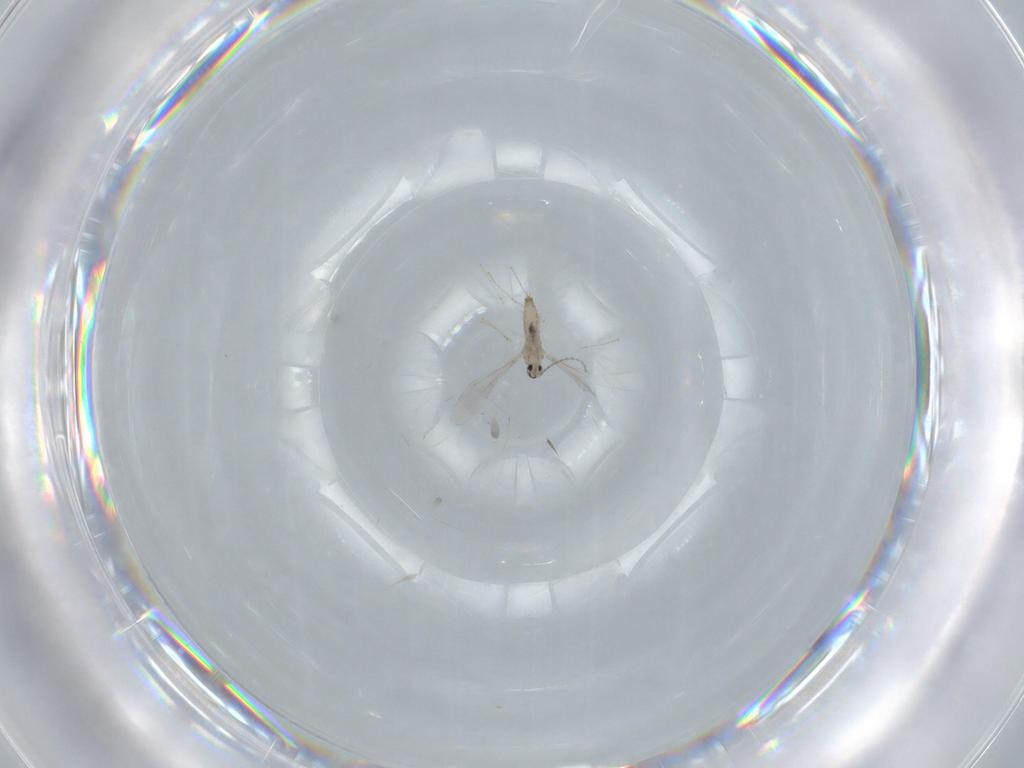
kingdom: Animalia
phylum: Arthropoda
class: Insecta
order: Diptera
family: Cecidomyiidae
